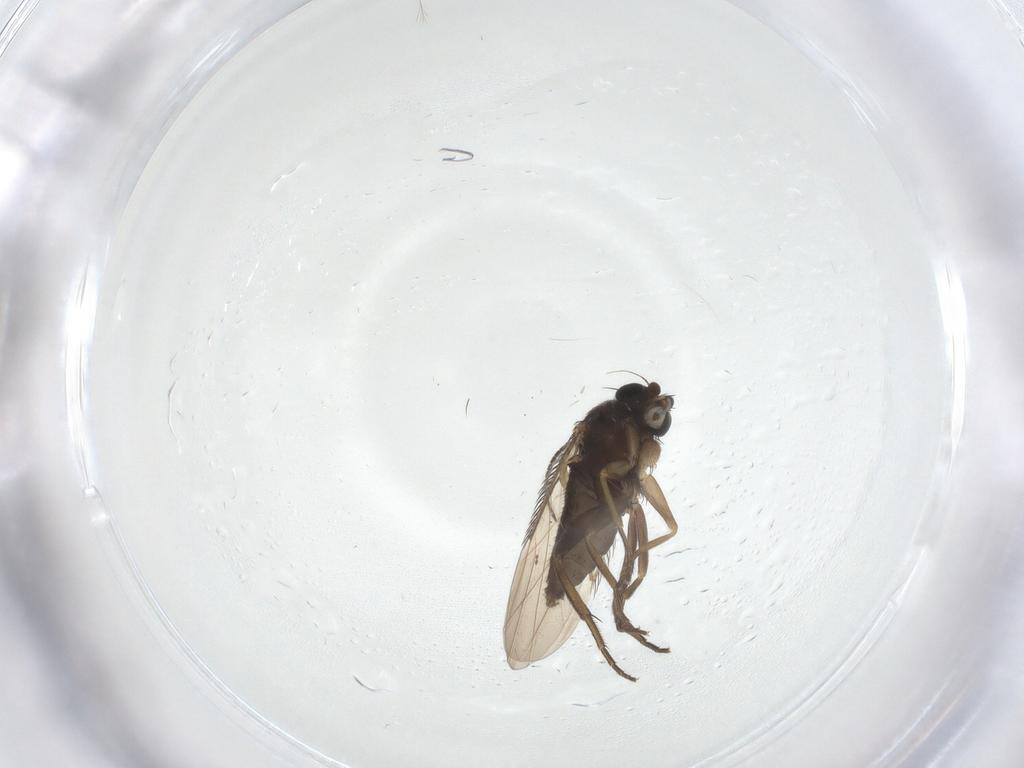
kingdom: Animalia
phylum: Arthropoda
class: Insecta
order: Diptera
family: Phoridae
